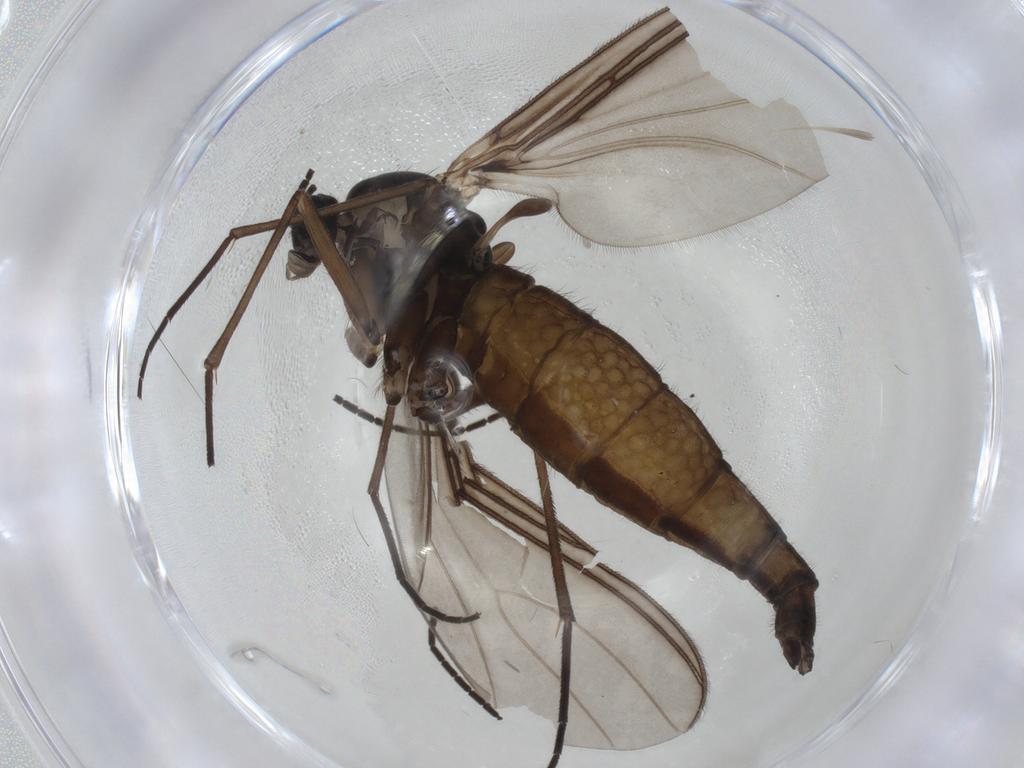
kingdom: Animalia
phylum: Arthropoda
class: Insecta
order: Diptera
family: Sciaridae
